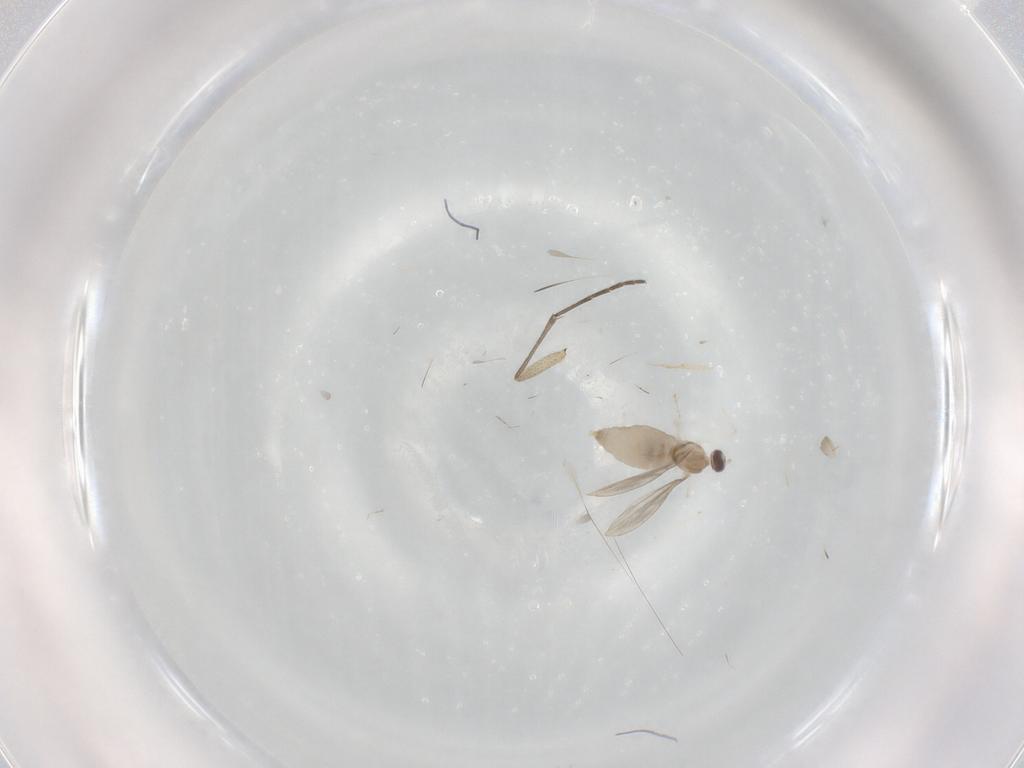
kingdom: Animalia
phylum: Arthropoda
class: Insecta
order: Diptera
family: Cecidomyiidae
